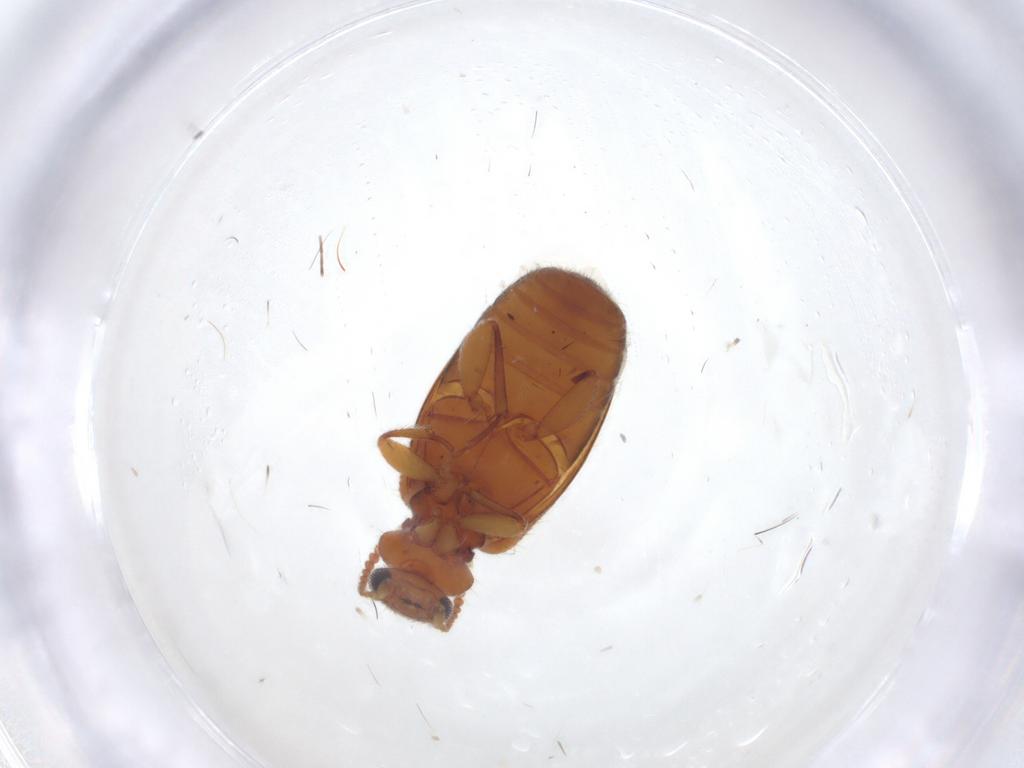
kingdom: Animalia
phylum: Arthropoda
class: Insecta
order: Coleoptera
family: Anthicidae
